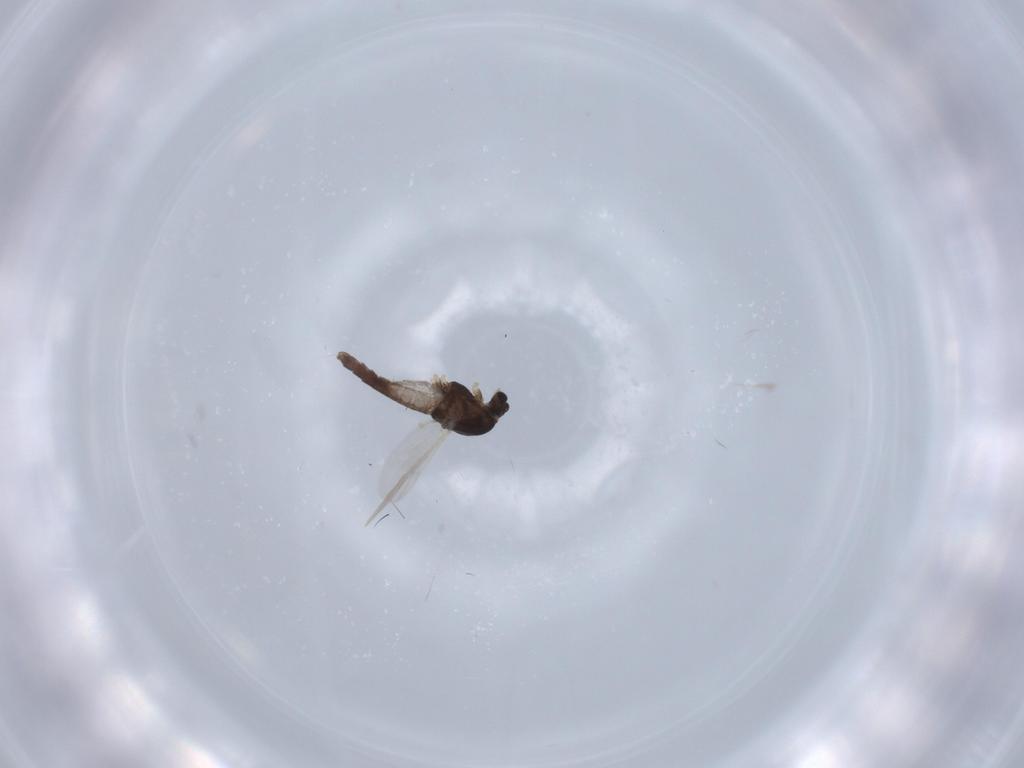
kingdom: Animalia
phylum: Arthropoda
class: Insecta
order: Diptera
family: Chironomidae
